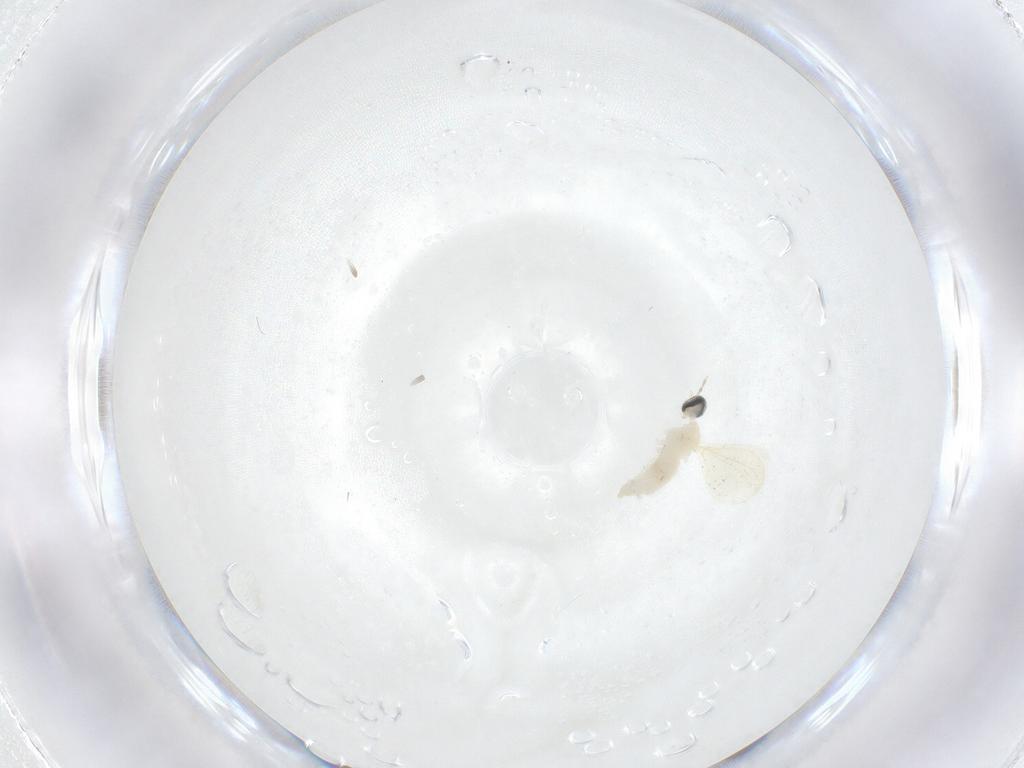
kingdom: Animalia
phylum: Arthropoda
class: Insecta
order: Diptera
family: Cecidomyiidae
